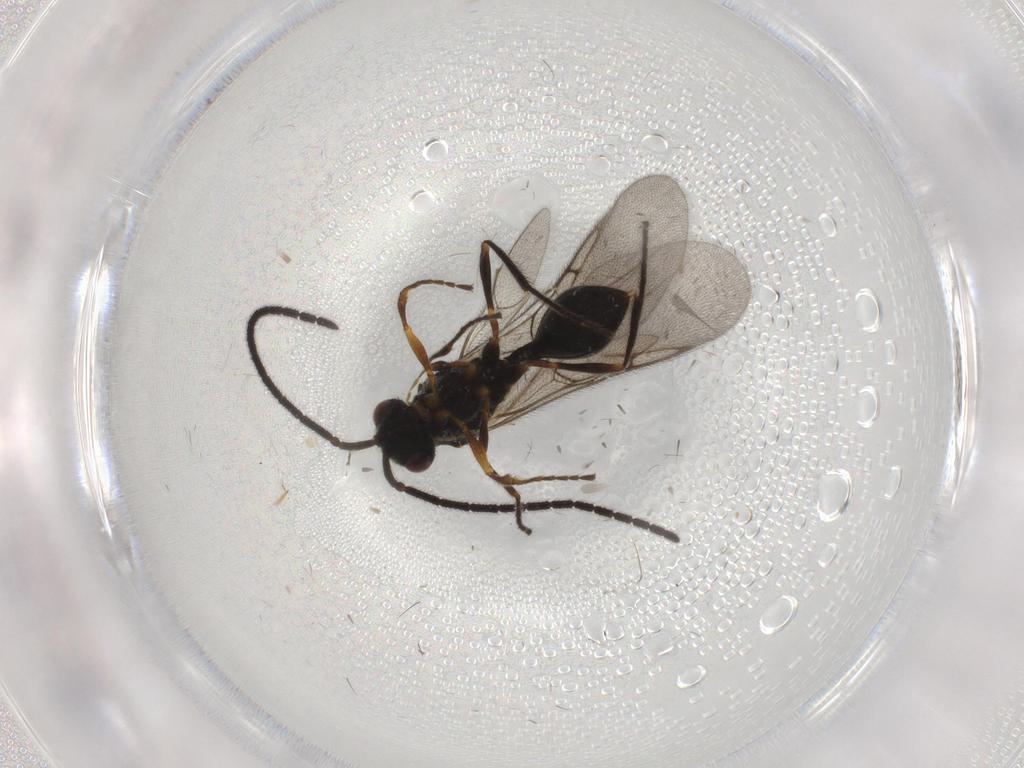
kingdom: Animalia
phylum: Arthropoda
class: Insecta
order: Hymenoptera
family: Diapriidae
